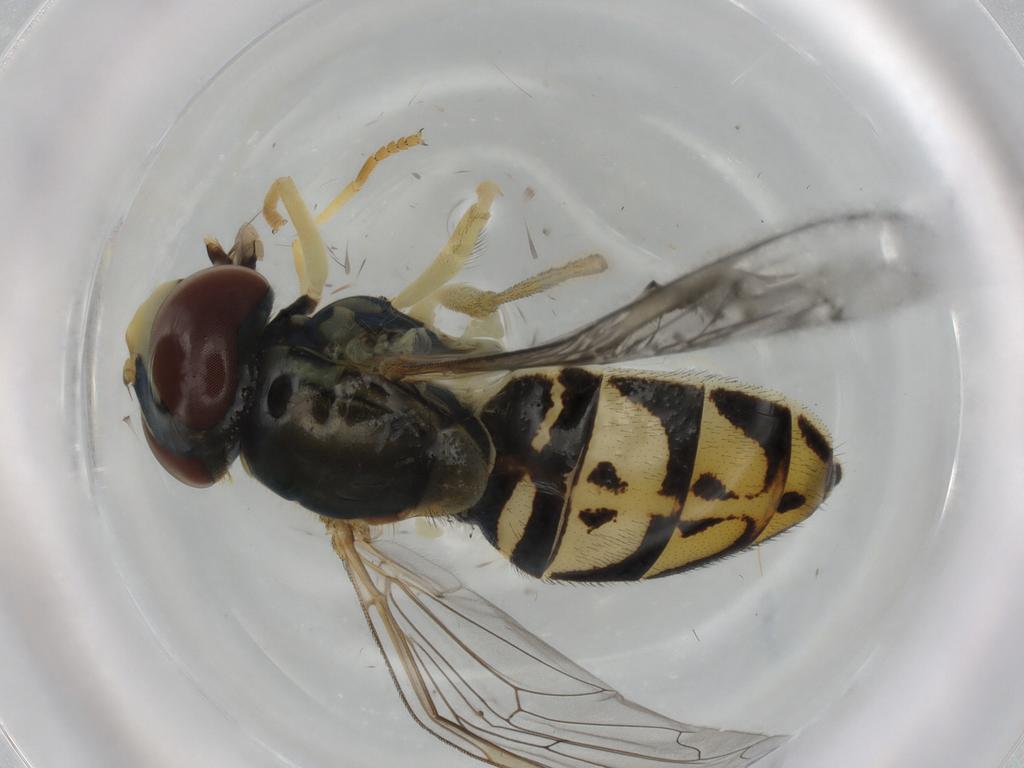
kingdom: Animalia
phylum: Arthropoda
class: Insecta
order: Diptera
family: Syrphidae
